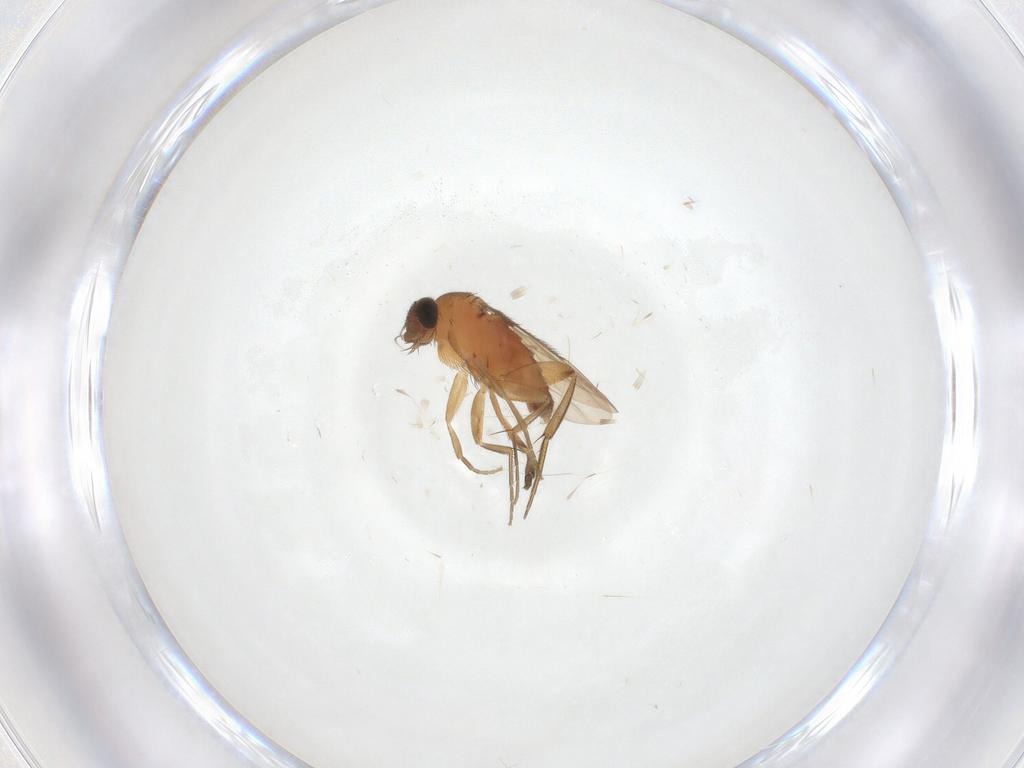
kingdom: Animalia
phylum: Arthropoda
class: Insecta
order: Diptera
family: Phoridae
